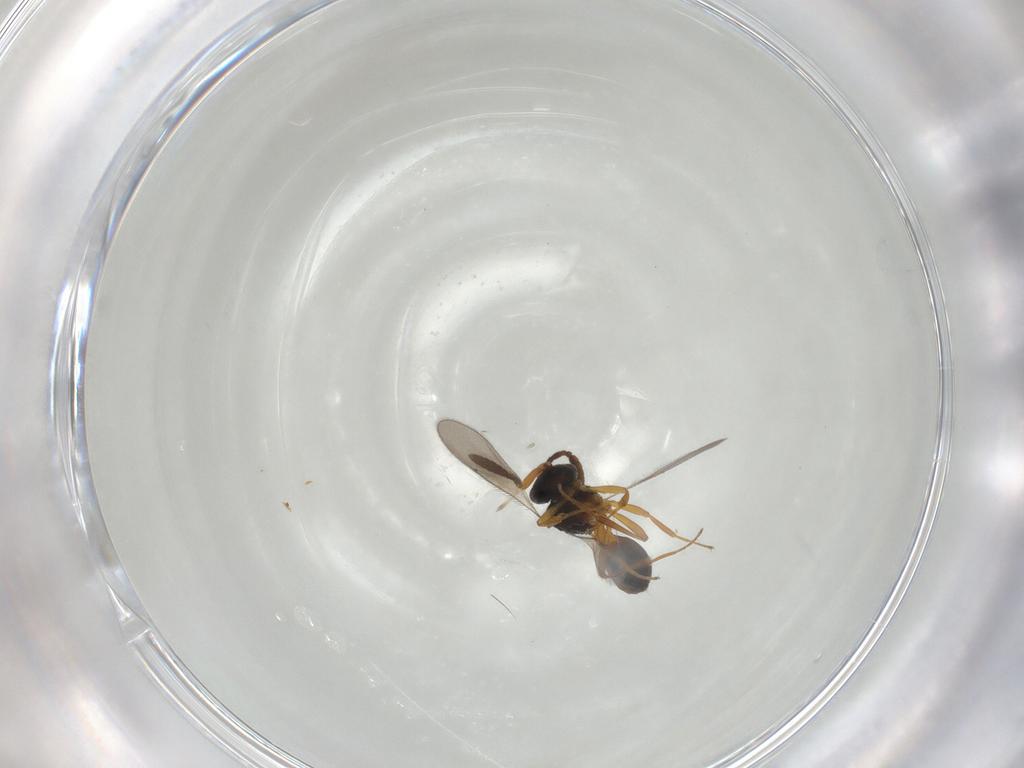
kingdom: Animalia
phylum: Arthropoda
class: Insecta
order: Hymenoptera
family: Scelionidae
